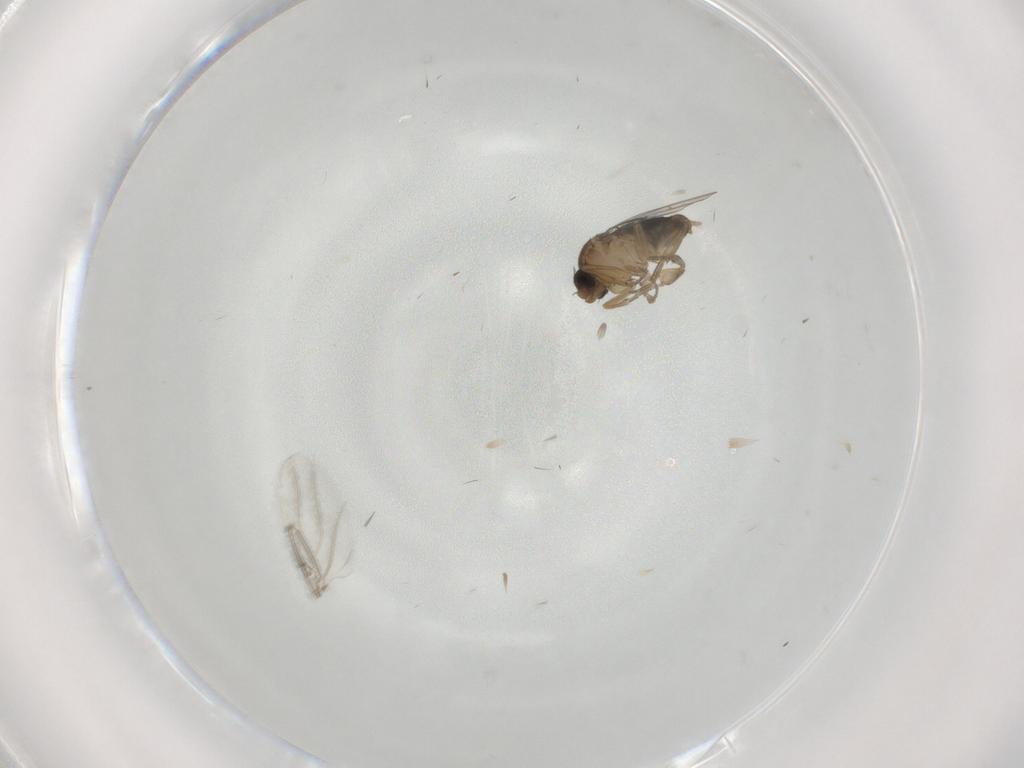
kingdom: Animalia
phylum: Arthropoda
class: Insecta
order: Diptera
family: Phoridae
